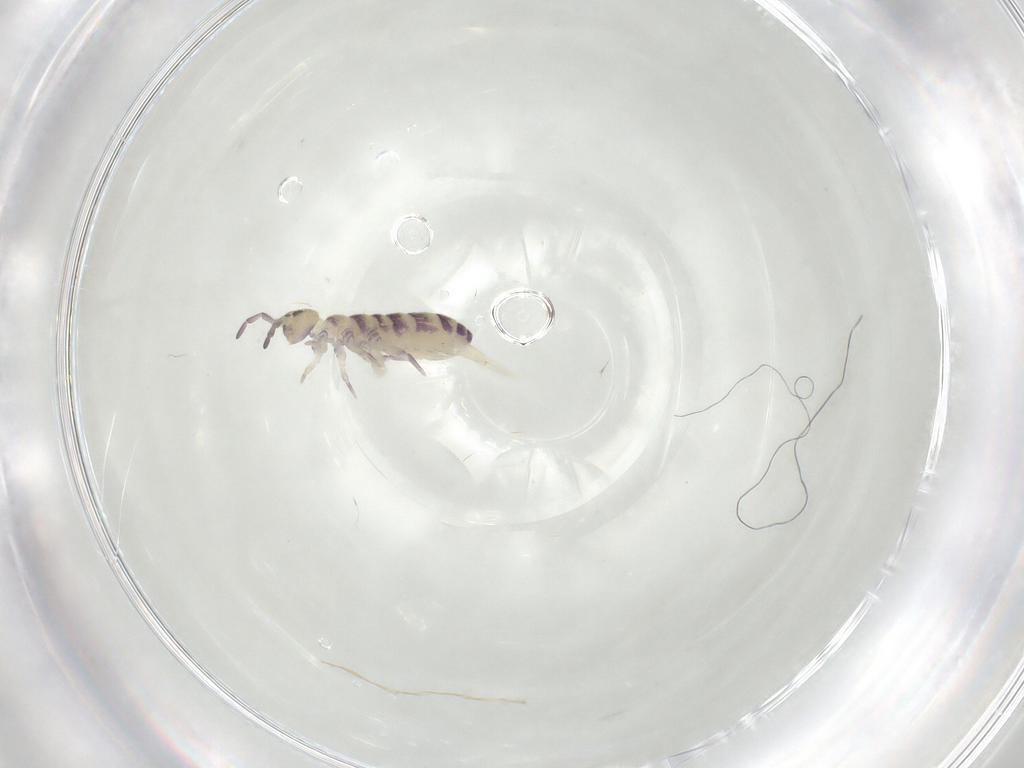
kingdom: Animalia
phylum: Arthropoda
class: Collembola
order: Entomobryomorpha
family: Isotomidae
